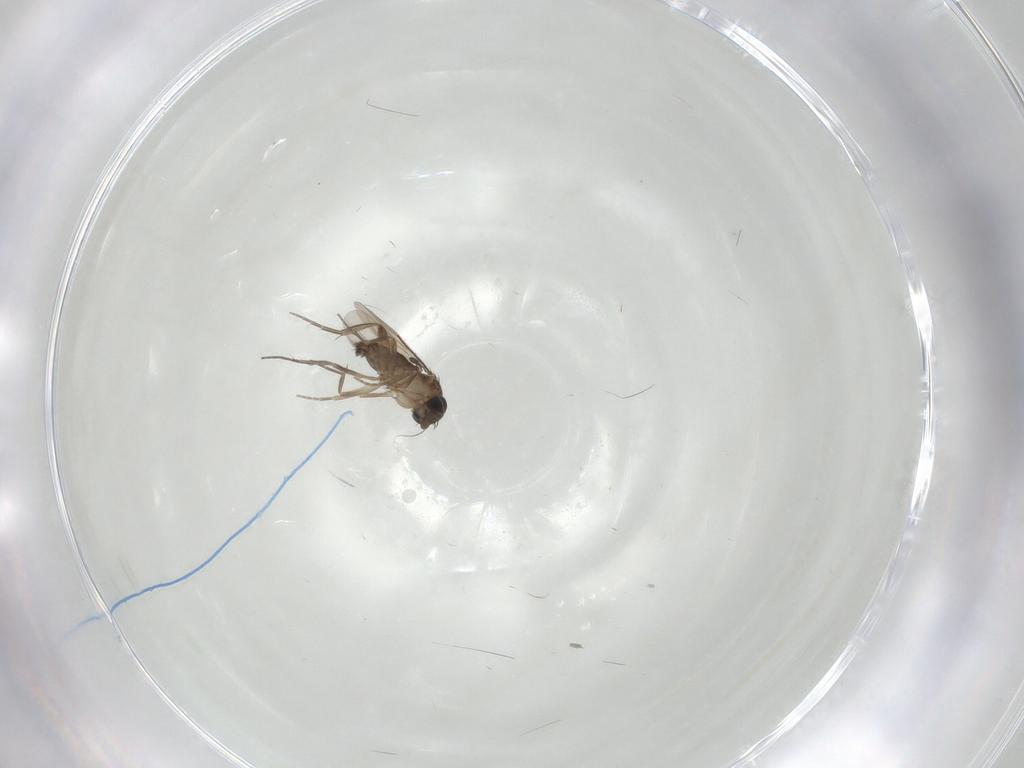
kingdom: Animalia
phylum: Arthropoda
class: Insecta
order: Diptera
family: Phoridae
